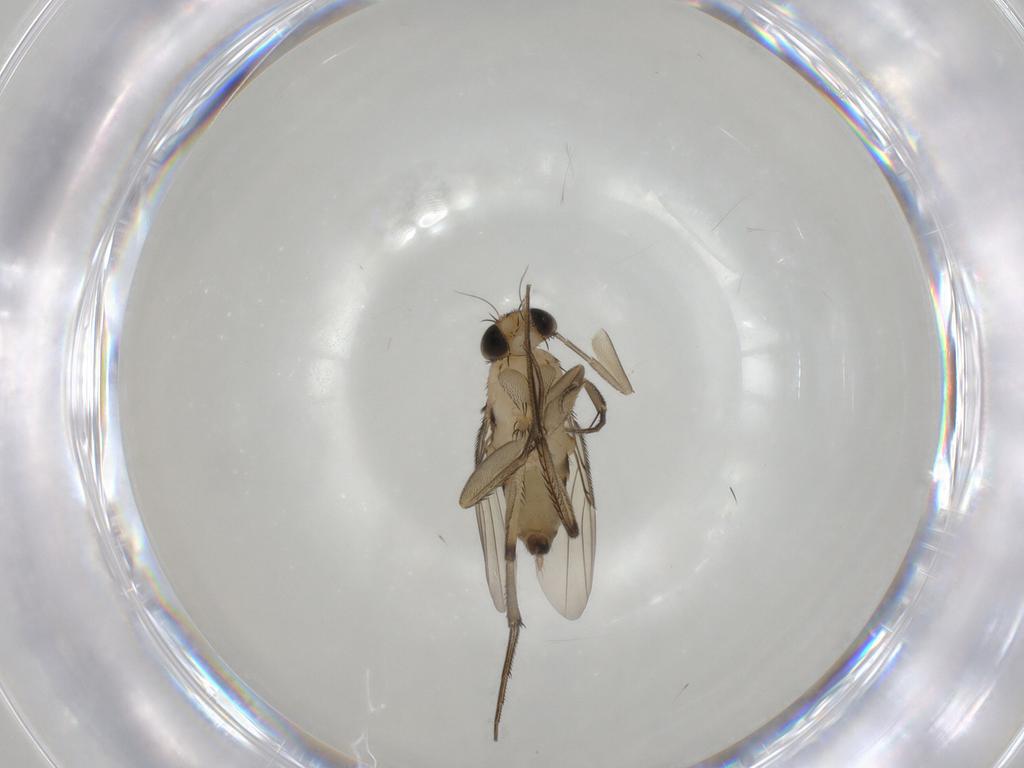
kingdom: Animalia
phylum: Arthropoda
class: Insecta
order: Diptera
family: Phoridae
